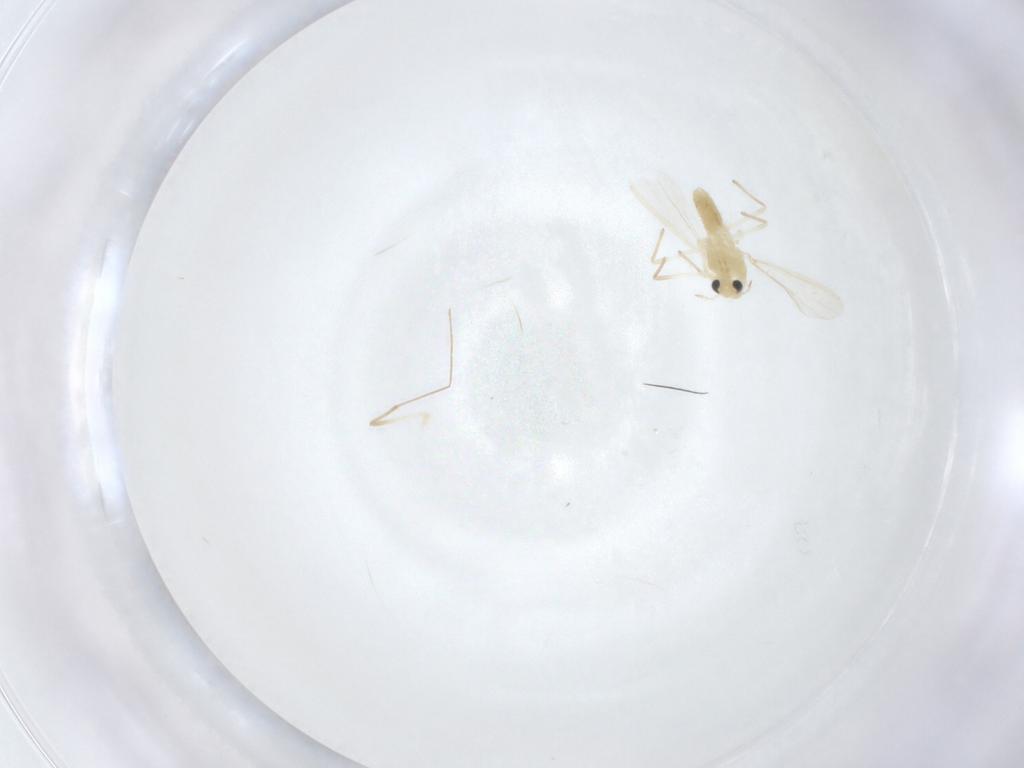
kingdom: Animalia
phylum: Arthropoda
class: Insecta
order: Diptera
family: Chironomidae
